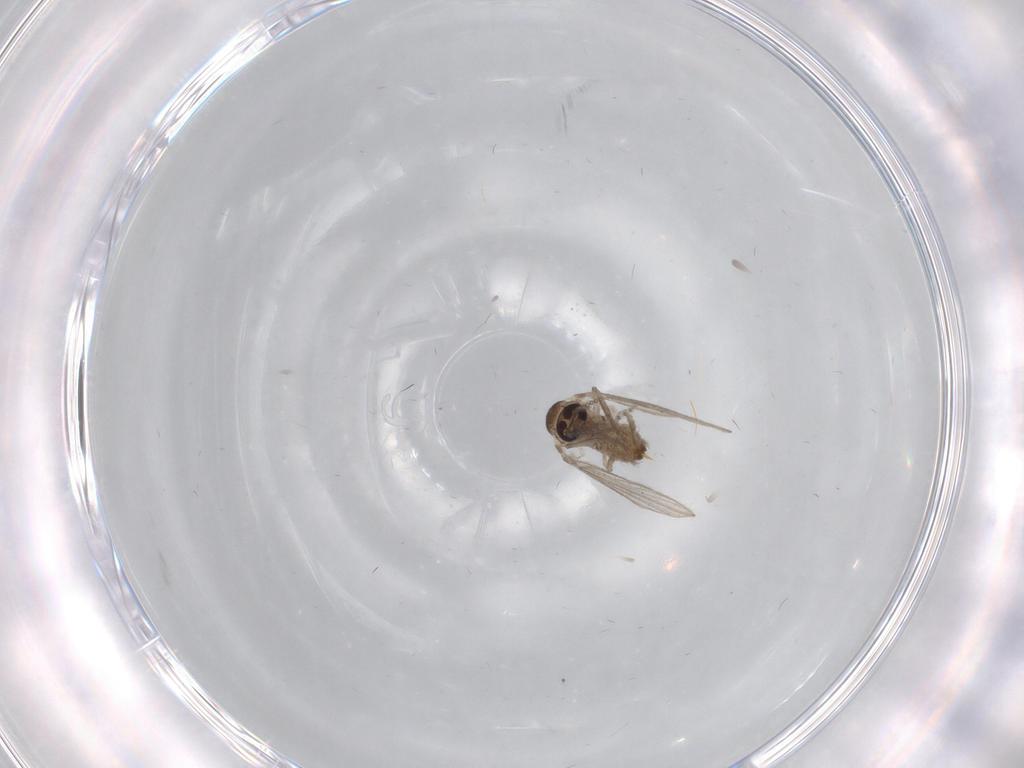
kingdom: Animalia
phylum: Arthropoda
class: Insecta
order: Diptera
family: Psychodidae
